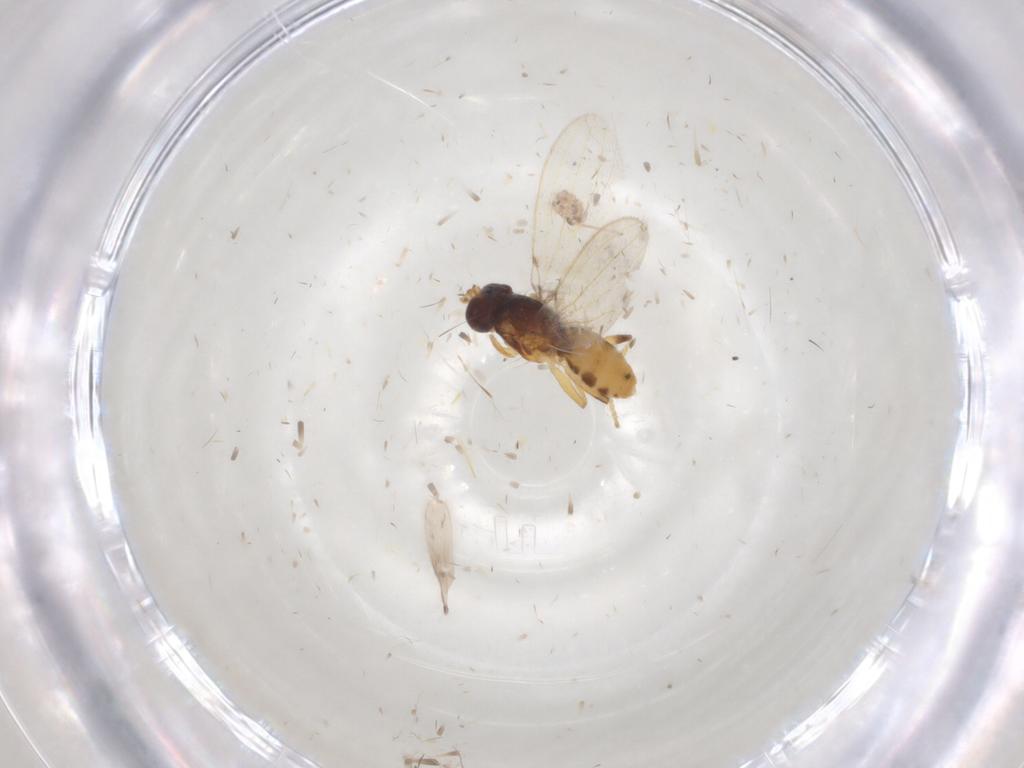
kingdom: Animalia
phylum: Arthropoda
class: Insecta
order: Diptera
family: Periscelididae
